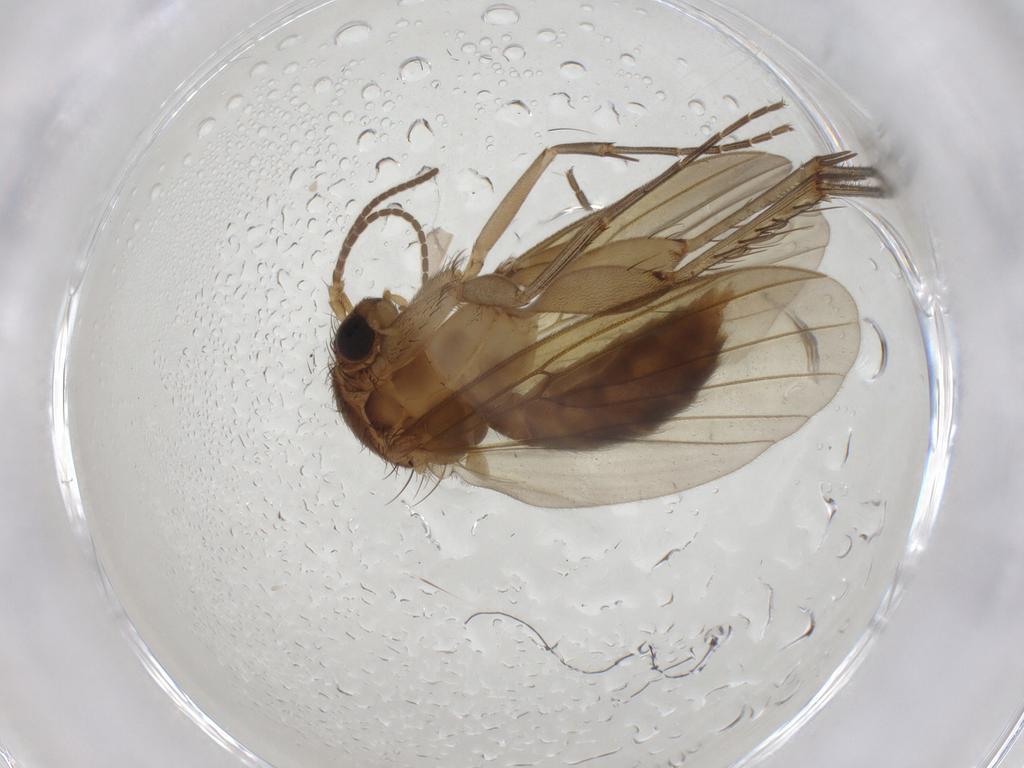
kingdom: Animalia
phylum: Arthropoda
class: Insecta
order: Diptera
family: Mycetophilidae
